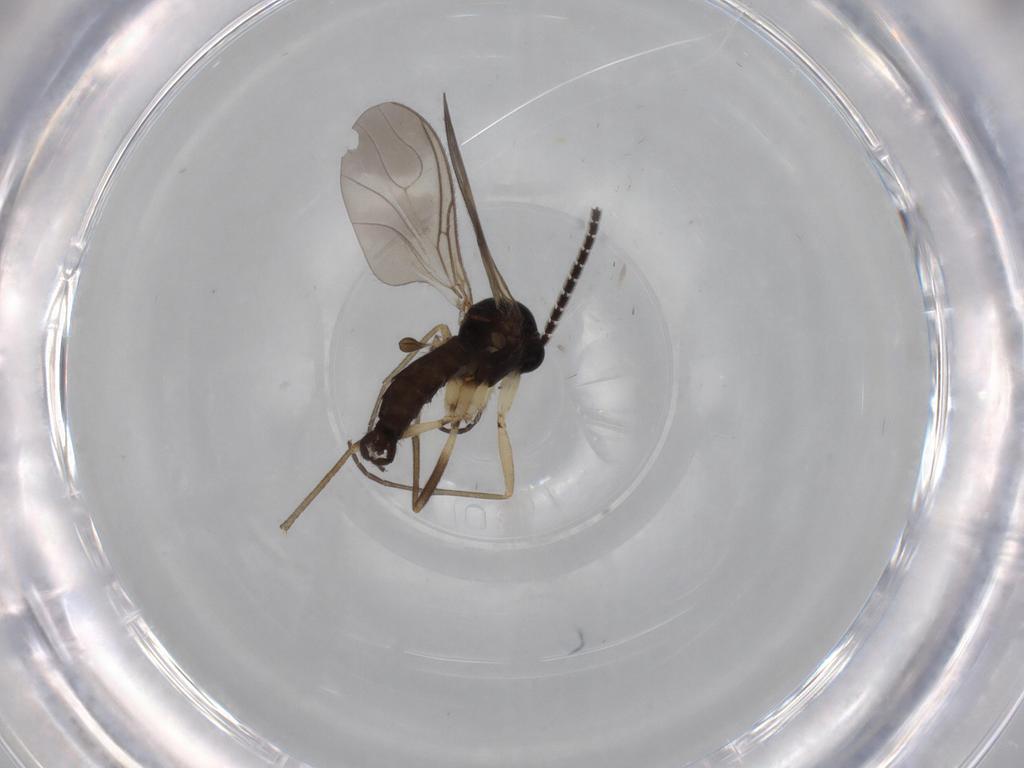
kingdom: Animalia
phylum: Arthropoda
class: Insecta
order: Diptera
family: Sciaridae
